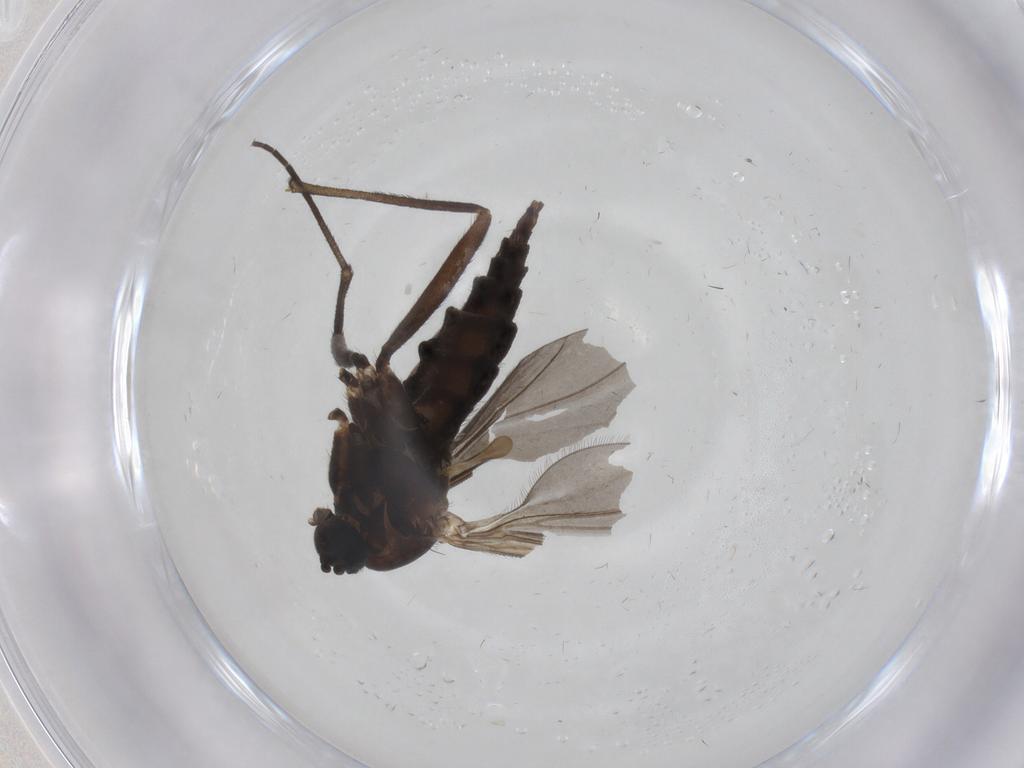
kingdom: Animalia
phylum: Arthropoda
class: Insecta
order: Diptera
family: Sciaridae
